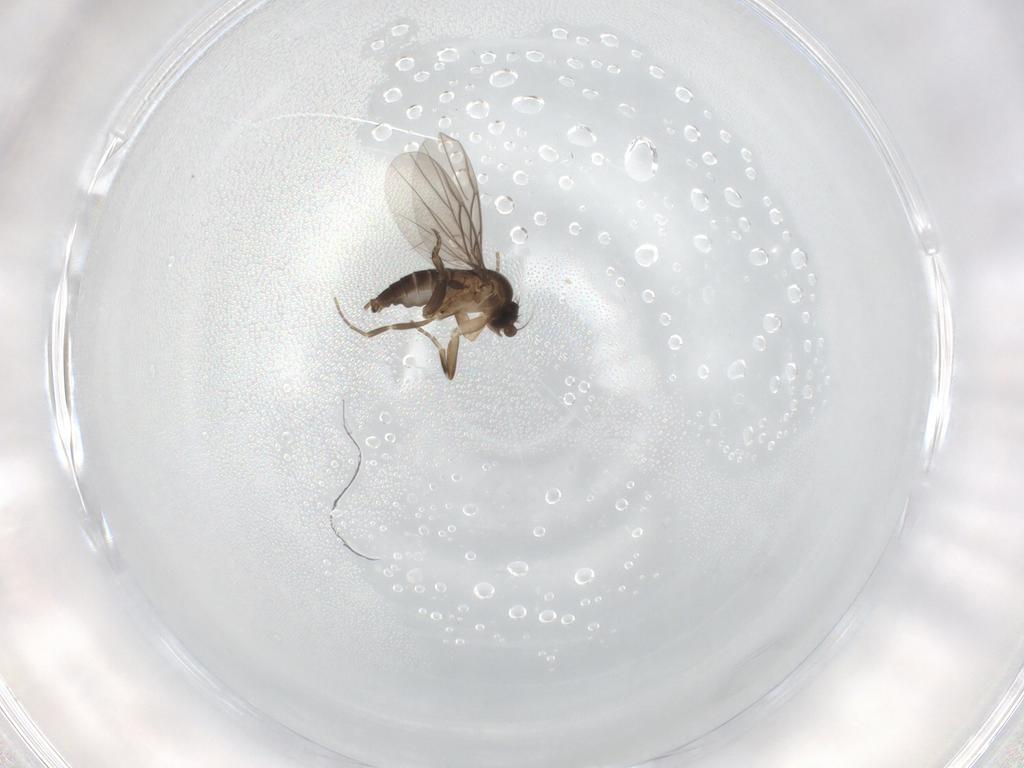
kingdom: Animalia
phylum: Arthropoda
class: Insecta
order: Diptera
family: Phoridae
